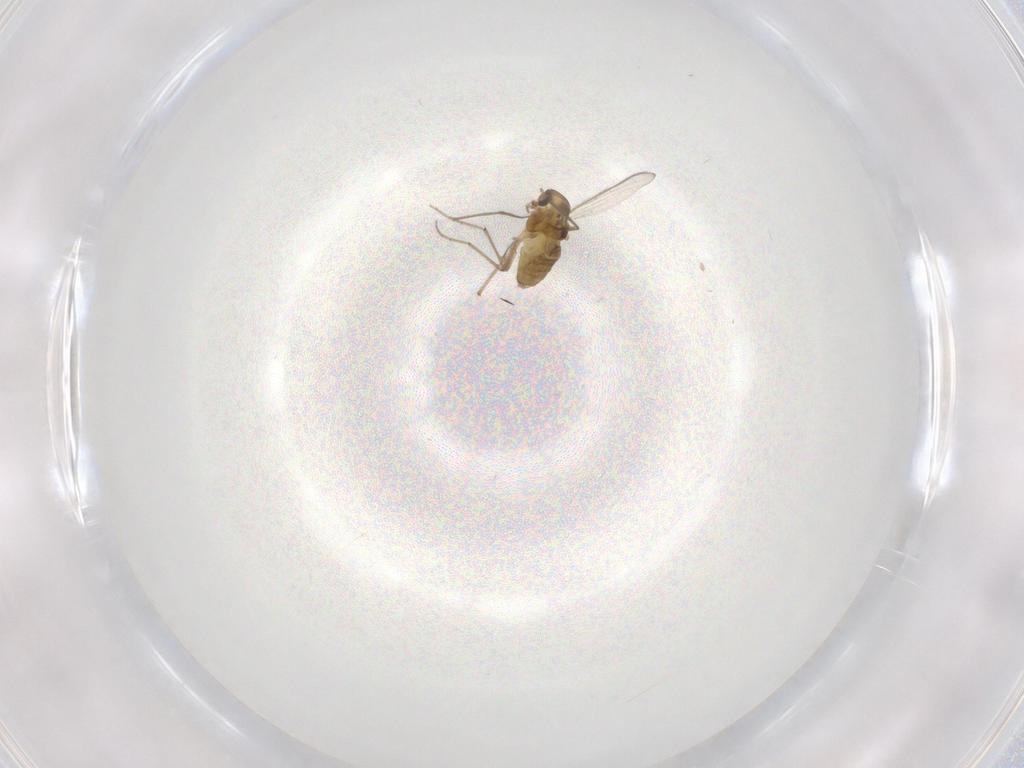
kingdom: Animalia
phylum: Arthropoda
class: Insecta
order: Diptera
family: Chironomidae
